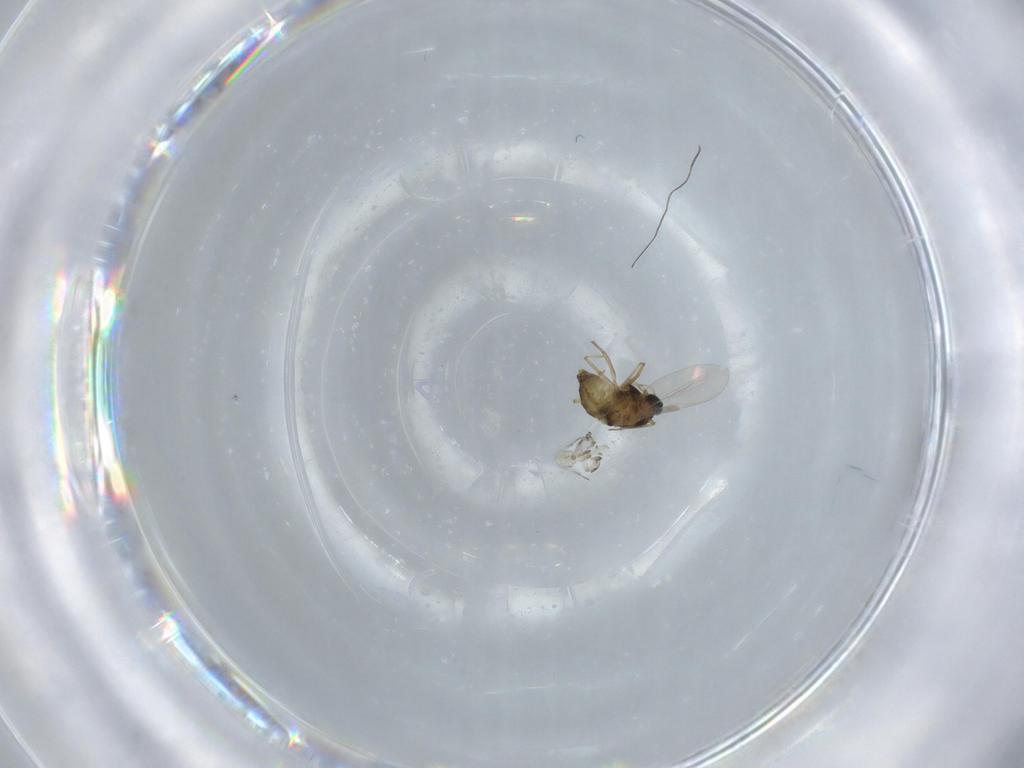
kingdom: Animalia
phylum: Arthropoda
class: Insecta
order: Diptera
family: Chironomidae
